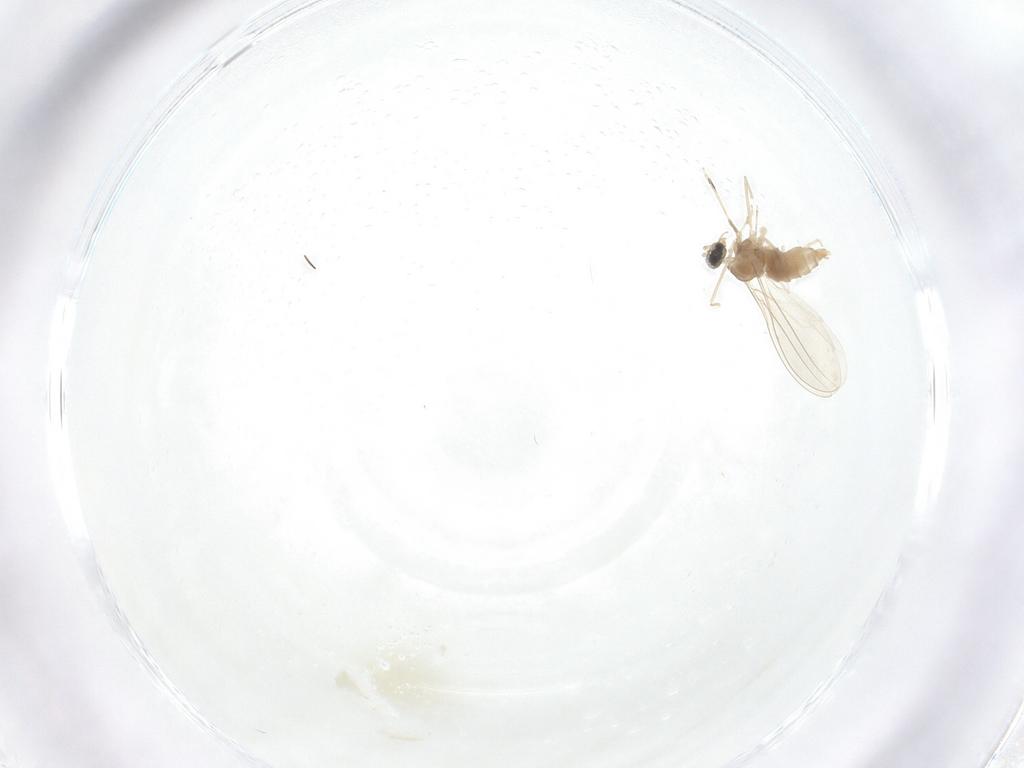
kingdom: Animalia
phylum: Arthropoda
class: Insecta
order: Diptera
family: Cecidomyiidae
